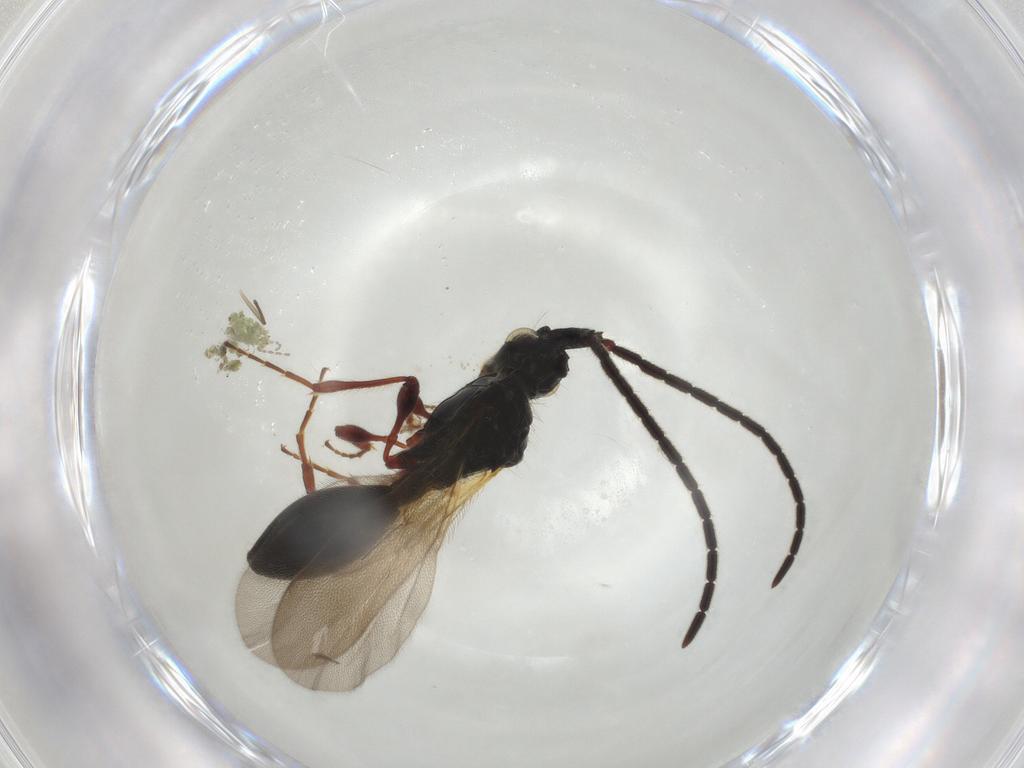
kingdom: Animalia
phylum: Arthropoda
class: Insecta
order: Hymenoptera
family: Diapriidae
